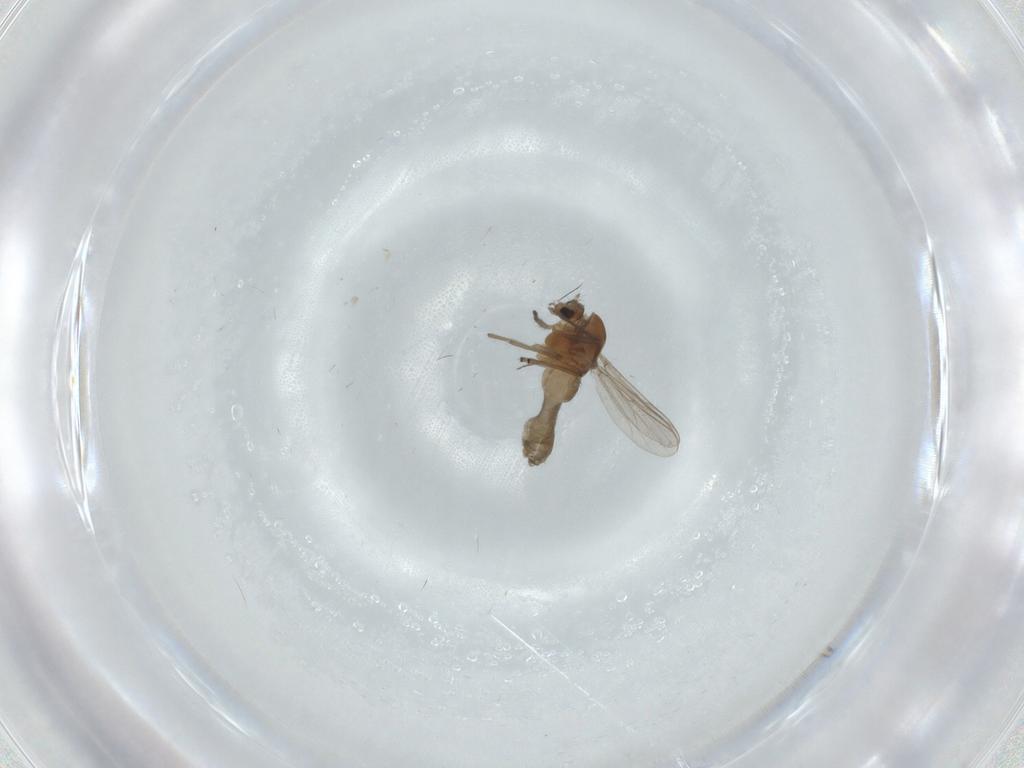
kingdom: Animalia
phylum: Arthropoda
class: Insecta
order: Diptera
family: Chironomidae
